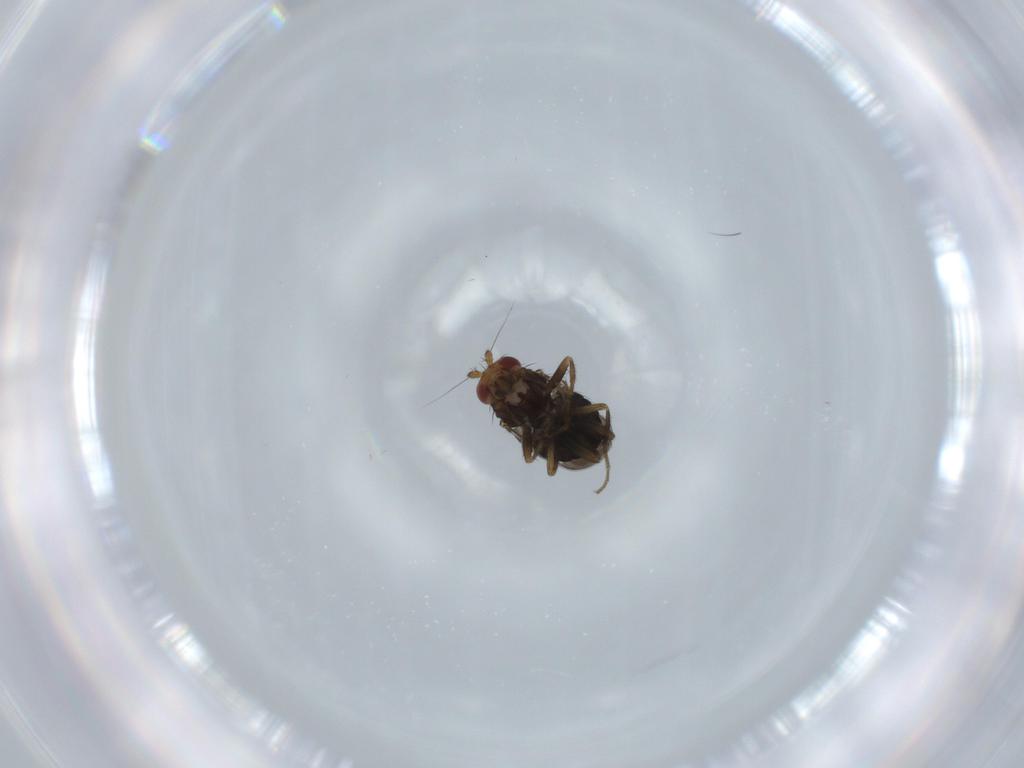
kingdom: Animalia
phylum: Arthropoda
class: Insecta
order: Diptera
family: Sphaeroceridae
